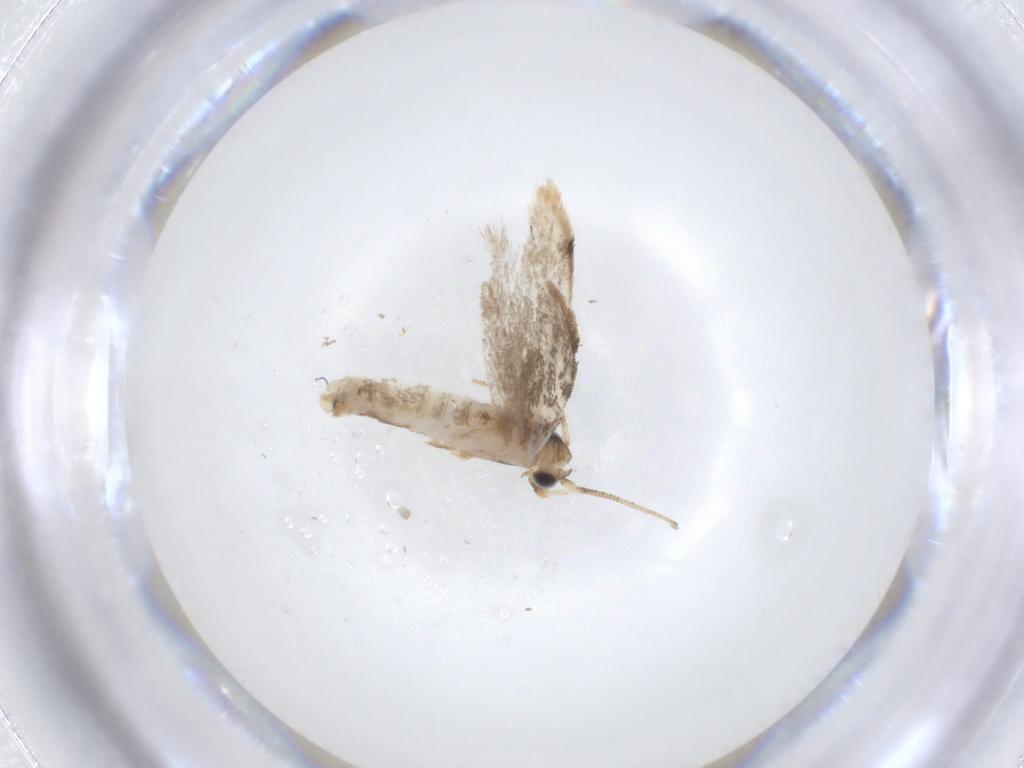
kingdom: Animalia
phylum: Arthropoda
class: Insecta
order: Lepidoptera
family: Dryadaulidae
